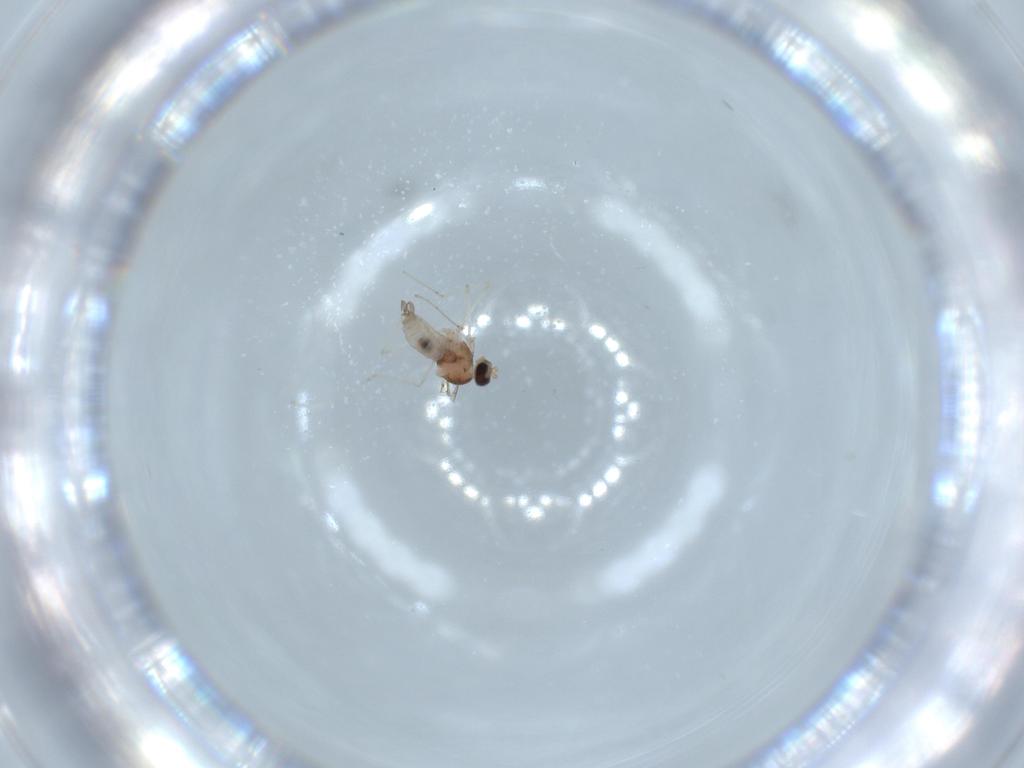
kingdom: Animalia
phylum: Arthropoda
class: Insecta
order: Diptera
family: Cecidomyiidae
